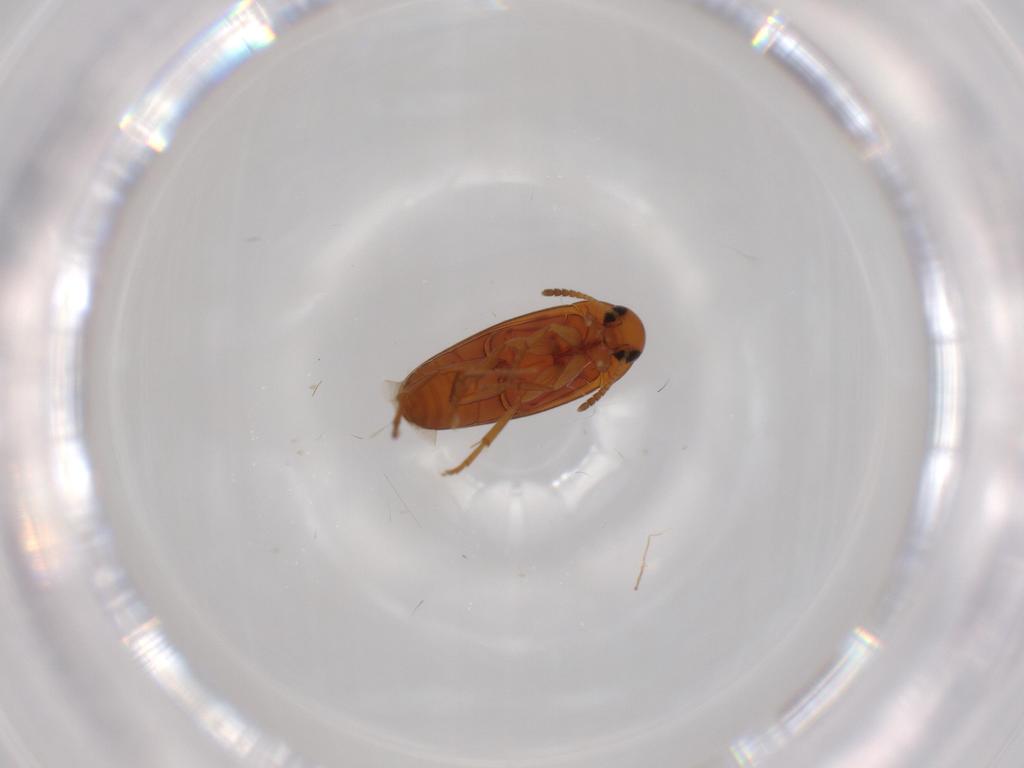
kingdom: Animalia
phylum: Arthropoda
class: Insecta
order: Coleoptera
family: Scraptiidae
